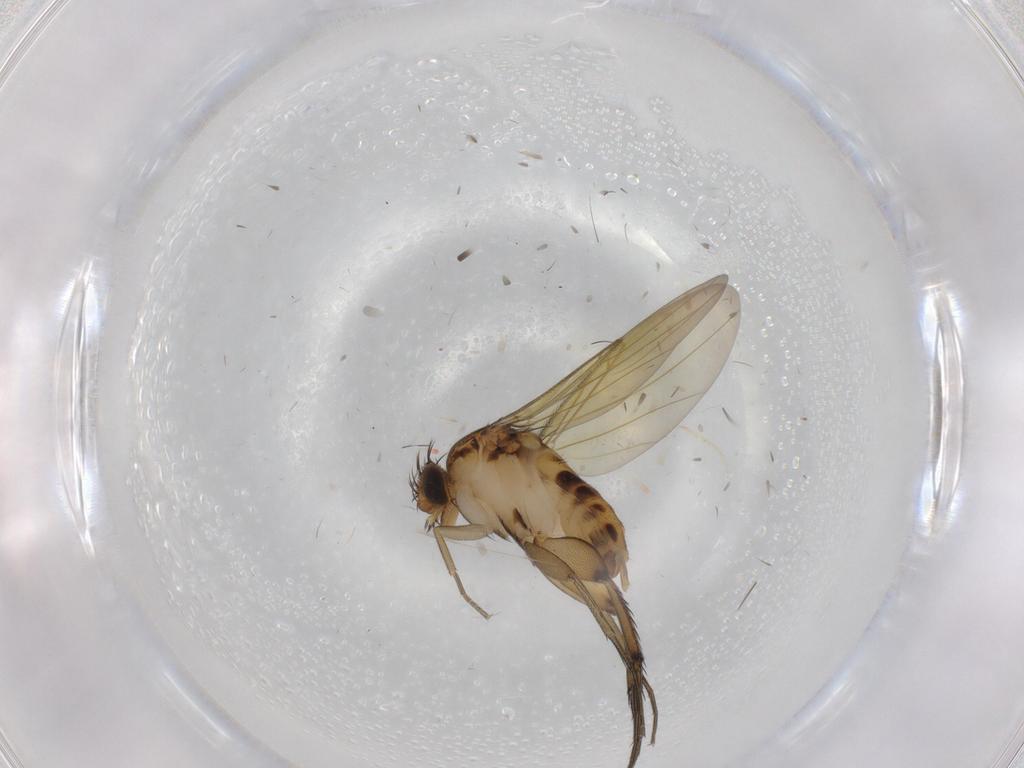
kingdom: Animalia
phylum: Arthropoda
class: Insecta
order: Diptera
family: Phoridae
